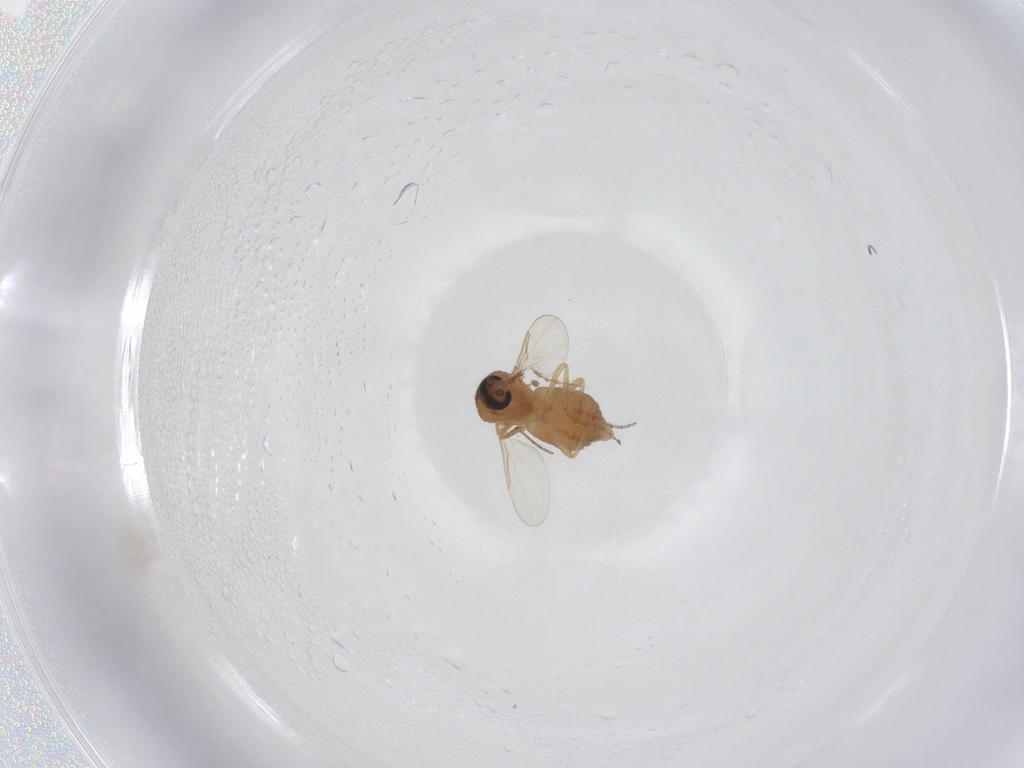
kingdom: Animalia
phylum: Arthropoda
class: Insecta
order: Diptera
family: Ceratopogonidae
